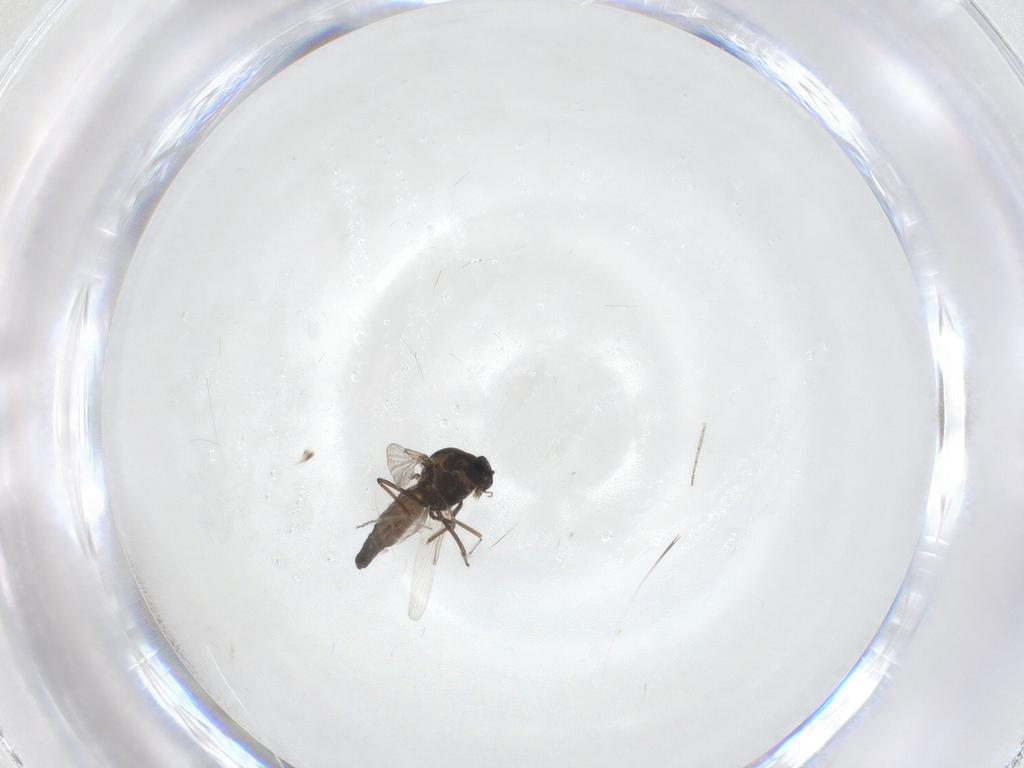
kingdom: Animalia
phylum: Arthropoda
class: Insecta
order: Diptera
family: Ceratopogonidae
